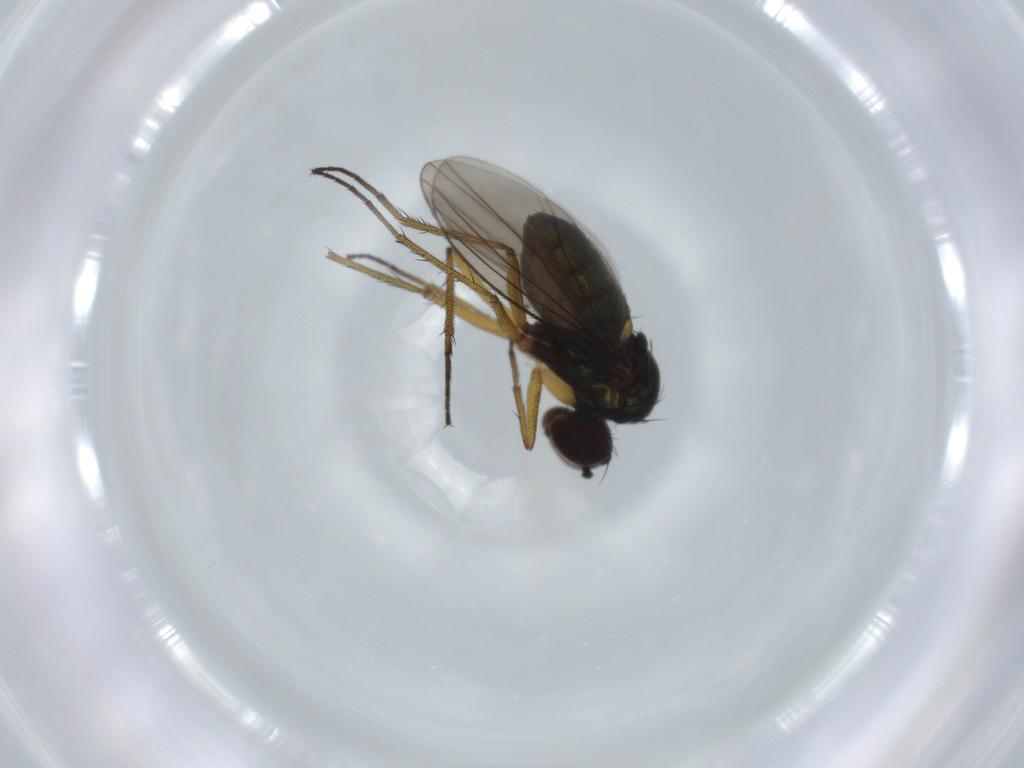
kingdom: Animalia
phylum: Arthropoda
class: Insecta
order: Diptera
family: Dolichopodidae
